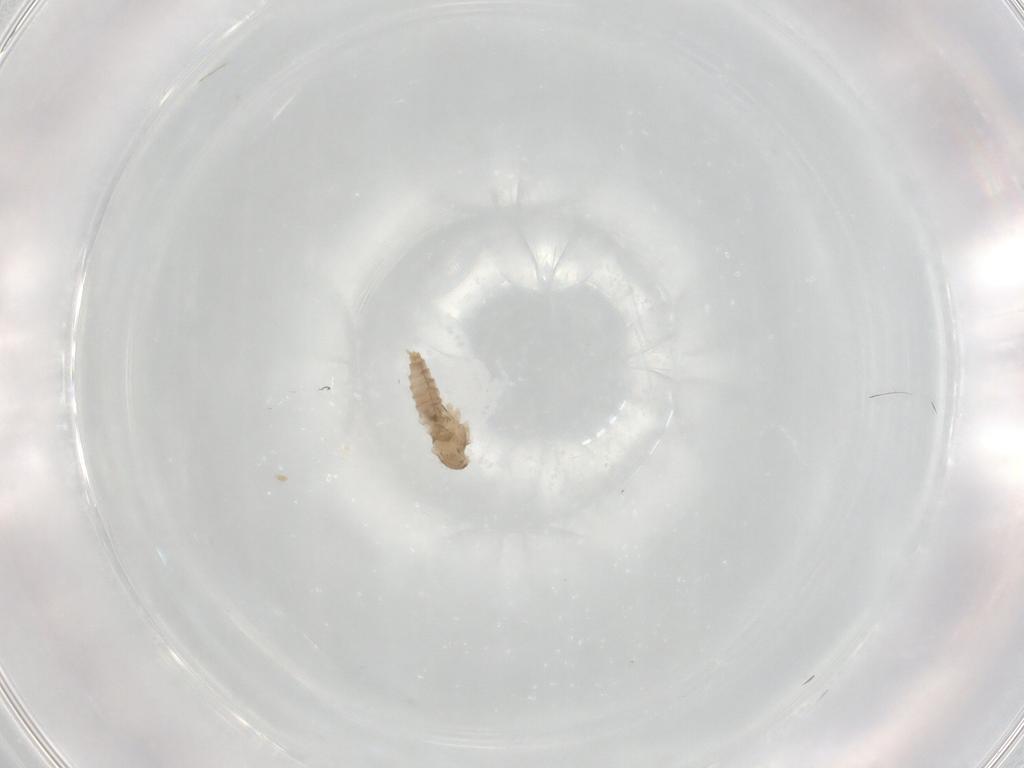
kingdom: Animalia
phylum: Arthropoda
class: Insecta
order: Diptera
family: Cecidomyiidae
